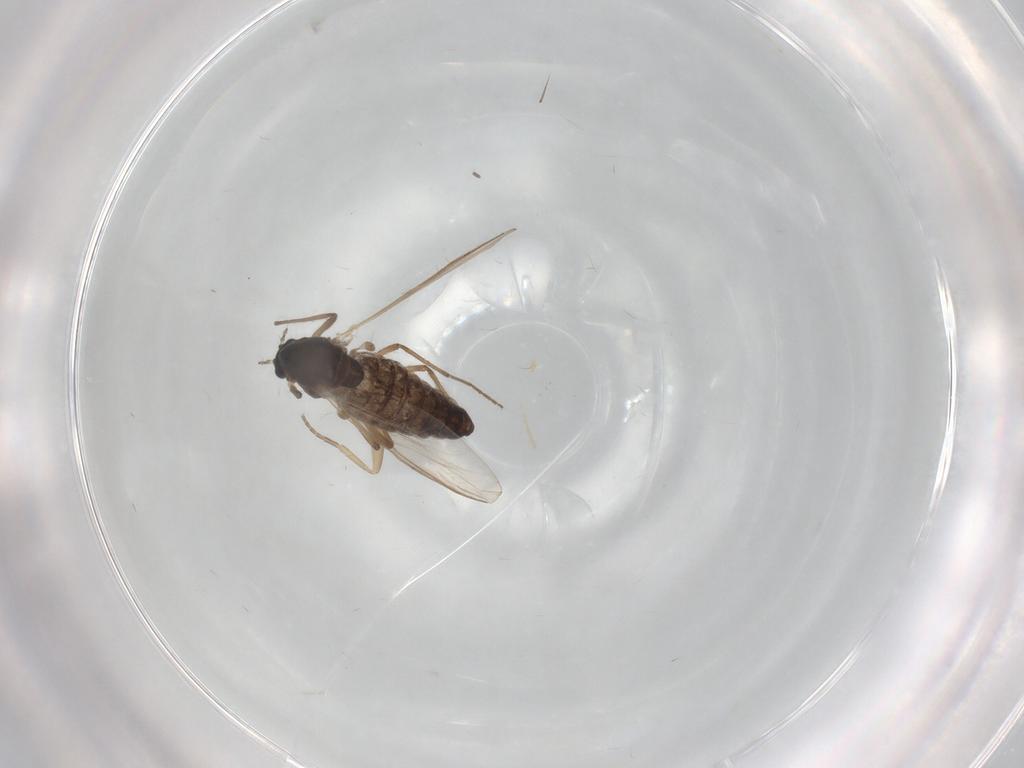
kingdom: Animalia
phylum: Arthropoda
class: Insecta
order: Diptera
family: Chironomidae
